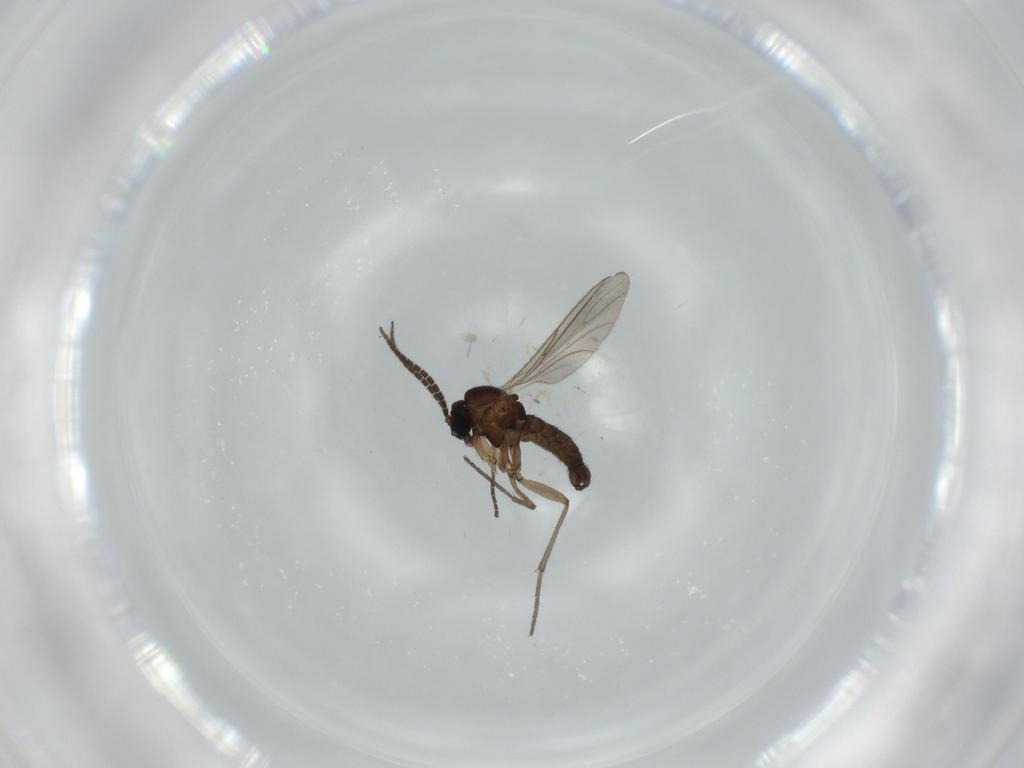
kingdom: Animalia
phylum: Arthropoda
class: Insecta
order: Diptera
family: Sciaridae
